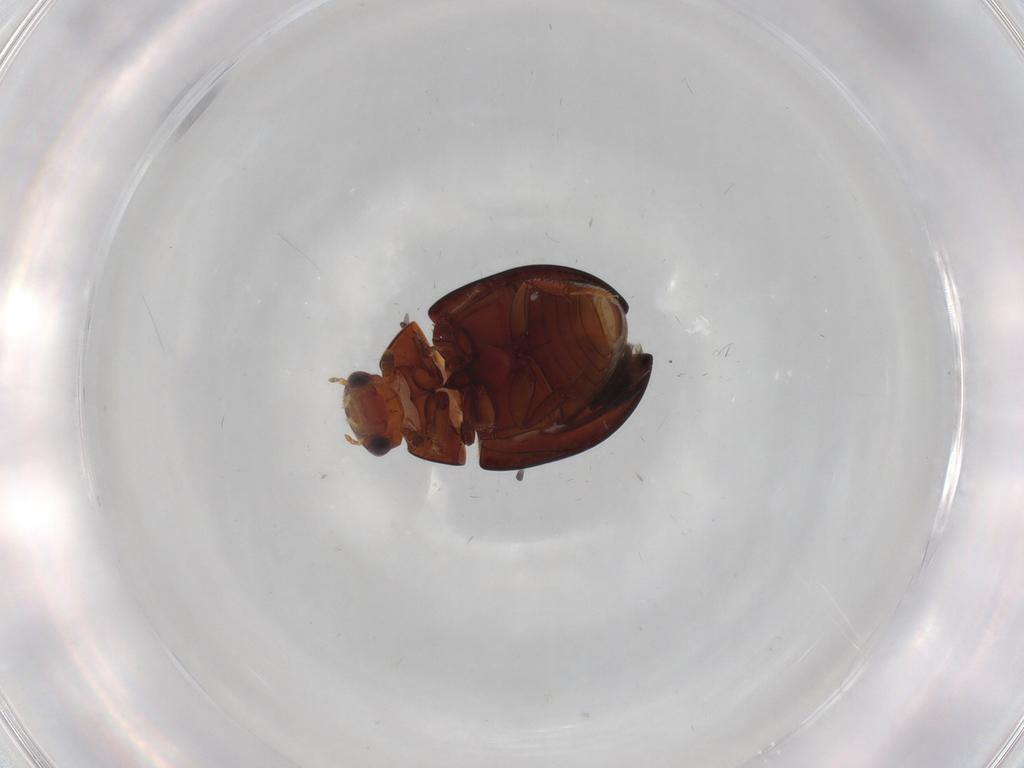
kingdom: Animalia
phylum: Arthropoda
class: Insecta
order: Coleoptera
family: Hydrophilidae
